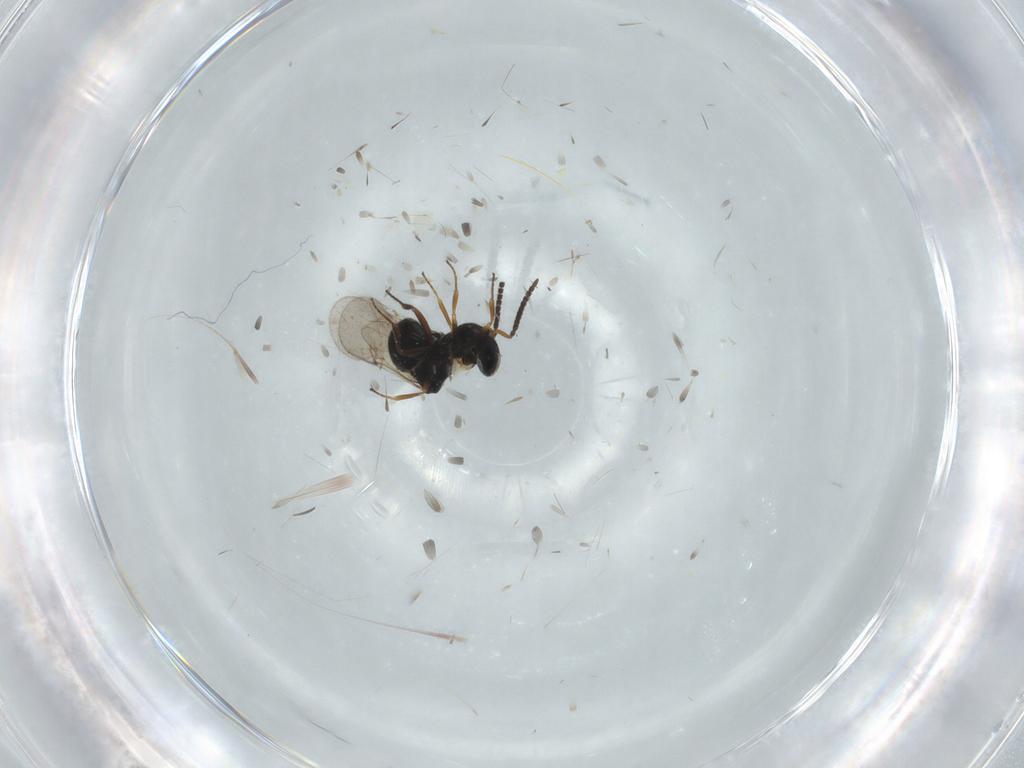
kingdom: Animalia
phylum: Arthropoda
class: Insecta
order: Hymenoptera
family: Scelionidae
